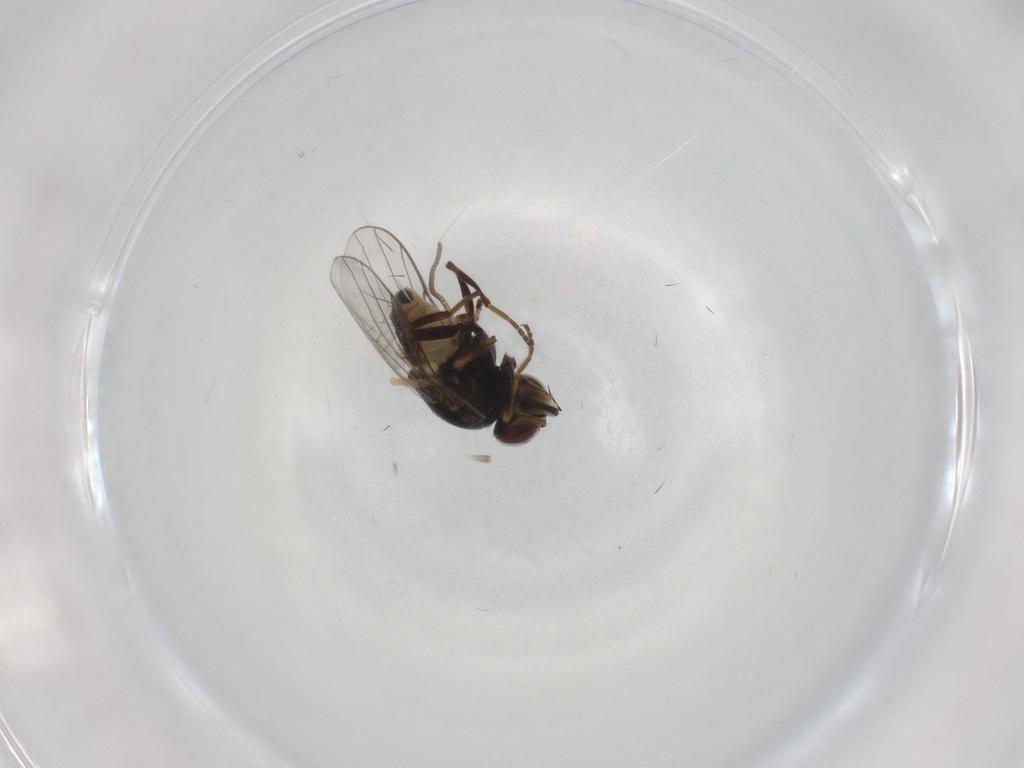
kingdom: Animalia
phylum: Arthropoda
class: Insecta
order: Diptera
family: Chloropidae
